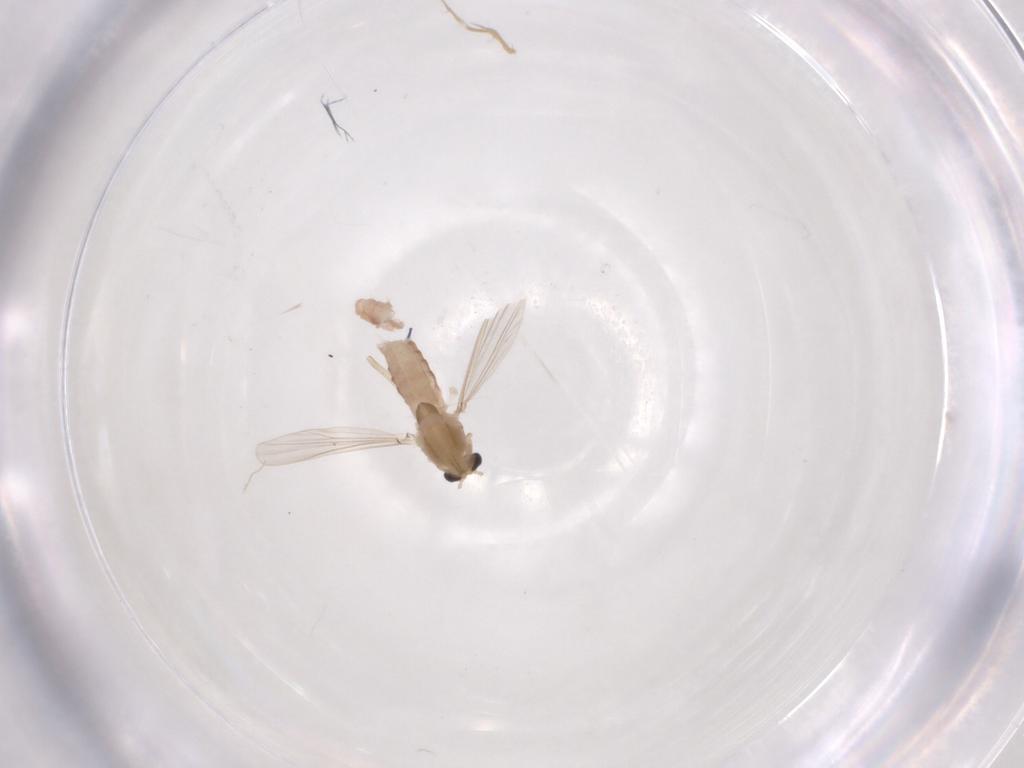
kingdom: Animalia
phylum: Arthropoda
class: Insecta
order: Diptera
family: Chironomidae
